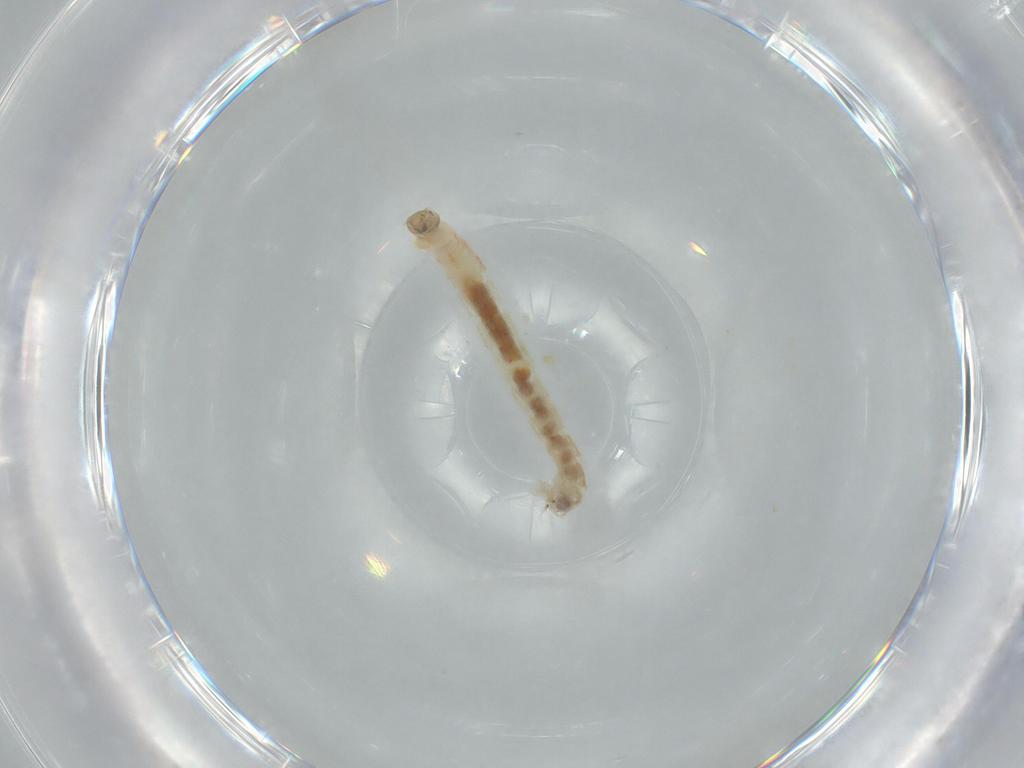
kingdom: Animalia
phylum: Arthropoda
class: Insecta
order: Diptera
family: Chironomidae
